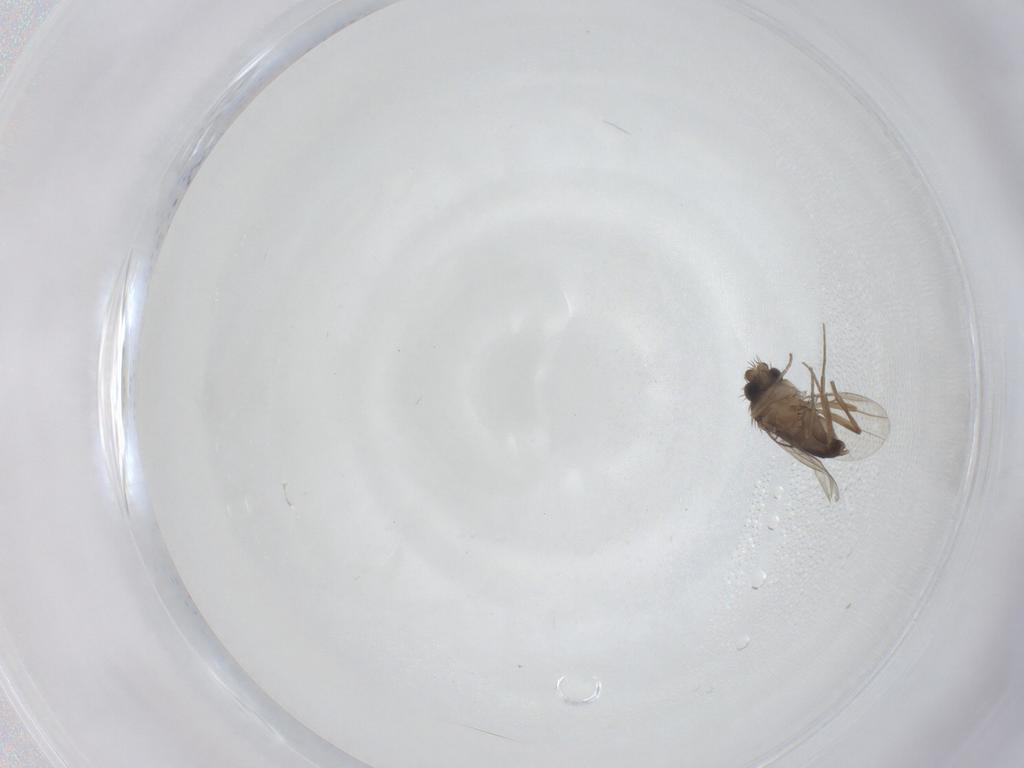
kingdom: Animalia
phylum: Arthropoda
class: Insecta
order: Diptera
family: Phoridae
